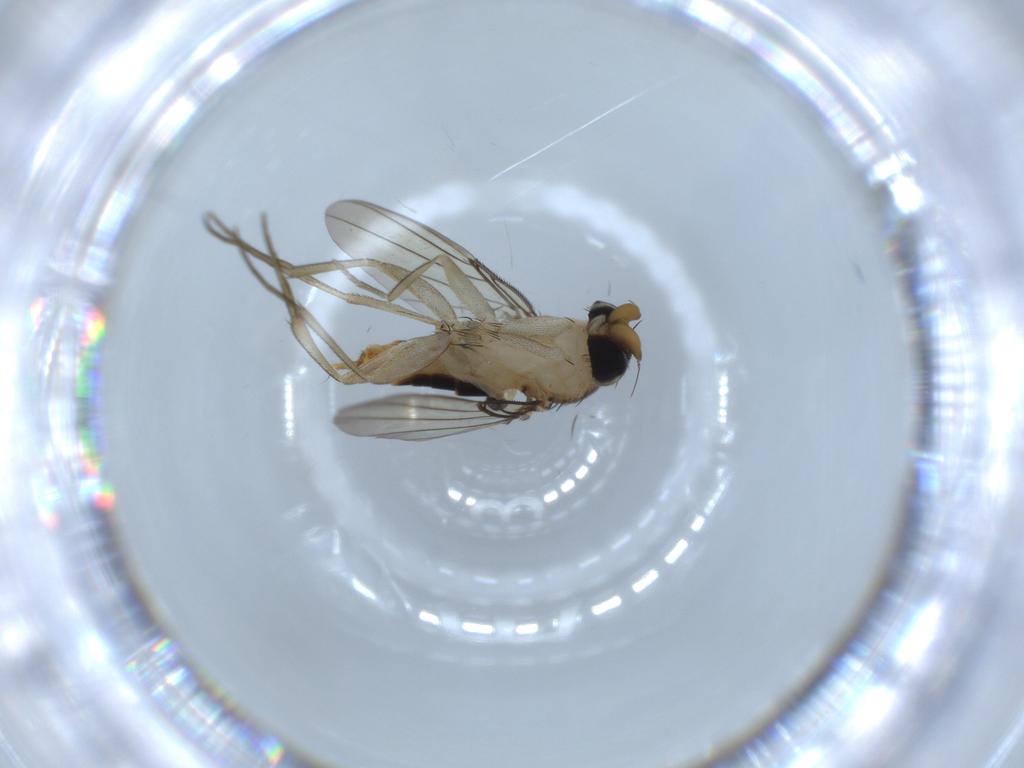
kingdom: Animalia
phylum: Arthropoda
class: Insecta
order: Diptera
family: Phoridae
